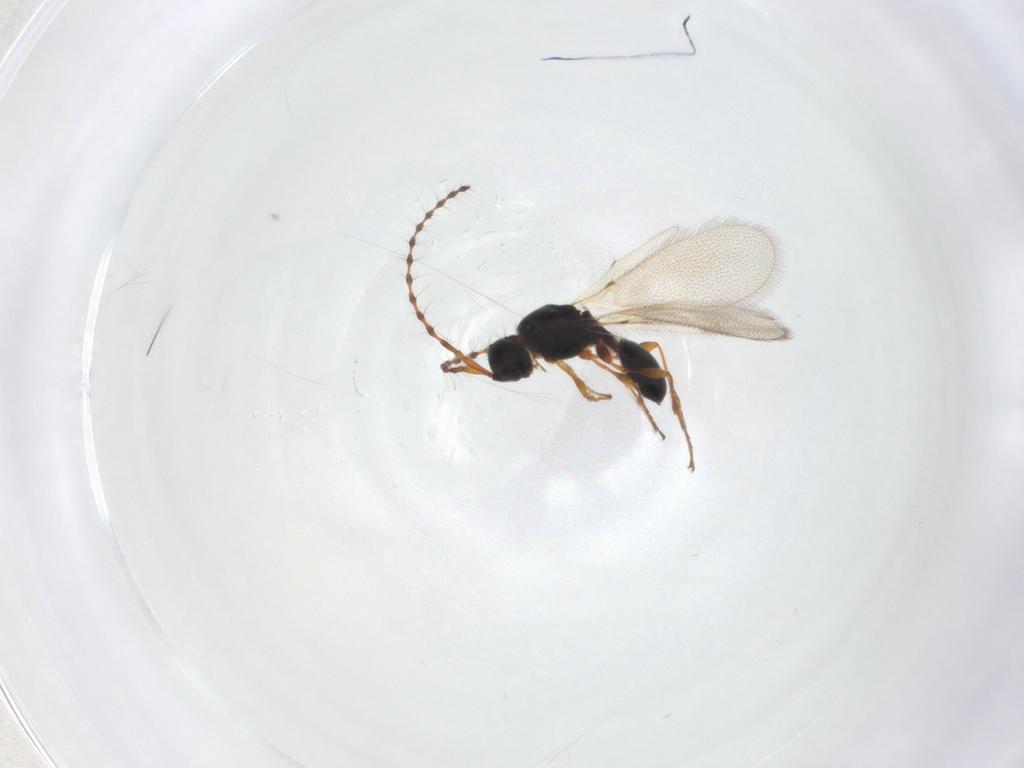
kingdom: Animalia
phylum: Arthropoda
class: Insecta
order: Hymenoptera
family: Diapriidae
